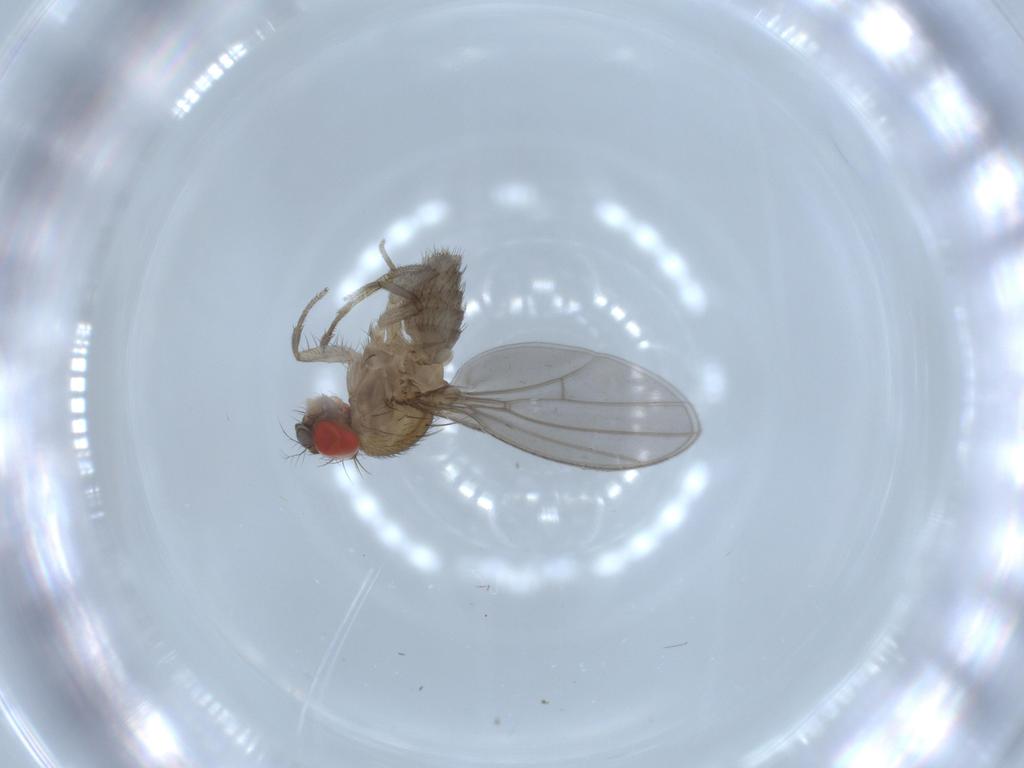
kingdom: Animalia
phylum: Arthropoda
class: Insecta
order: Diptera
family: Drosophilidae
